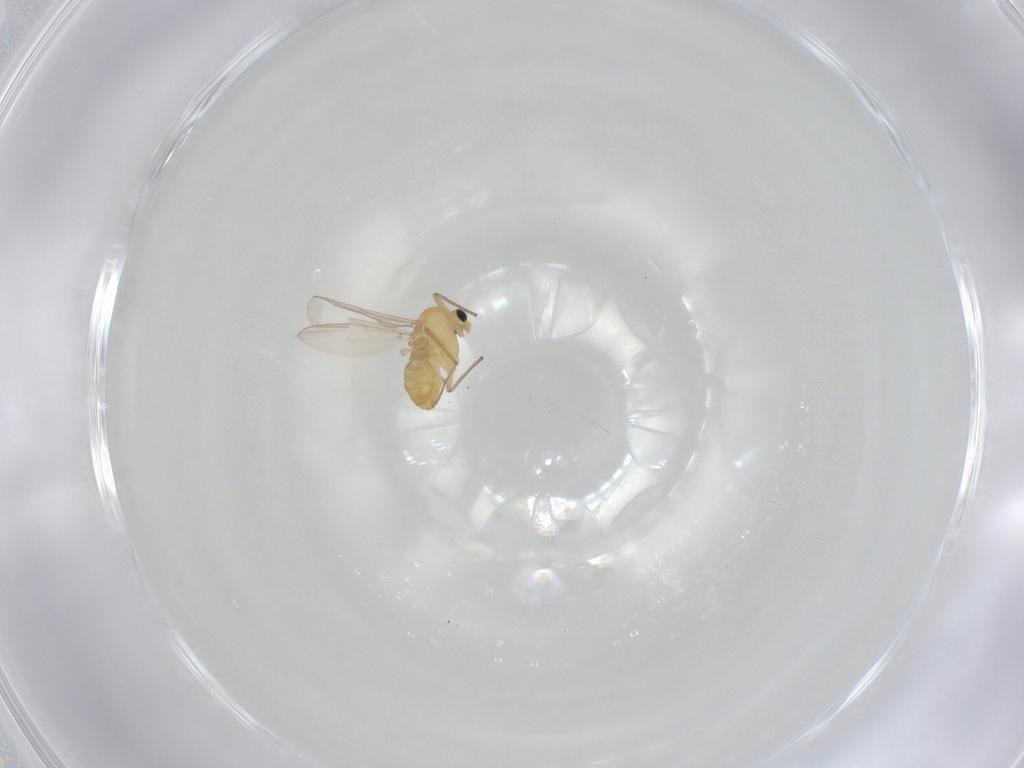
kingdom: Animalia
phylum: Arthropoda
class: Insecta
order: Diptera
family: Chironomidae
